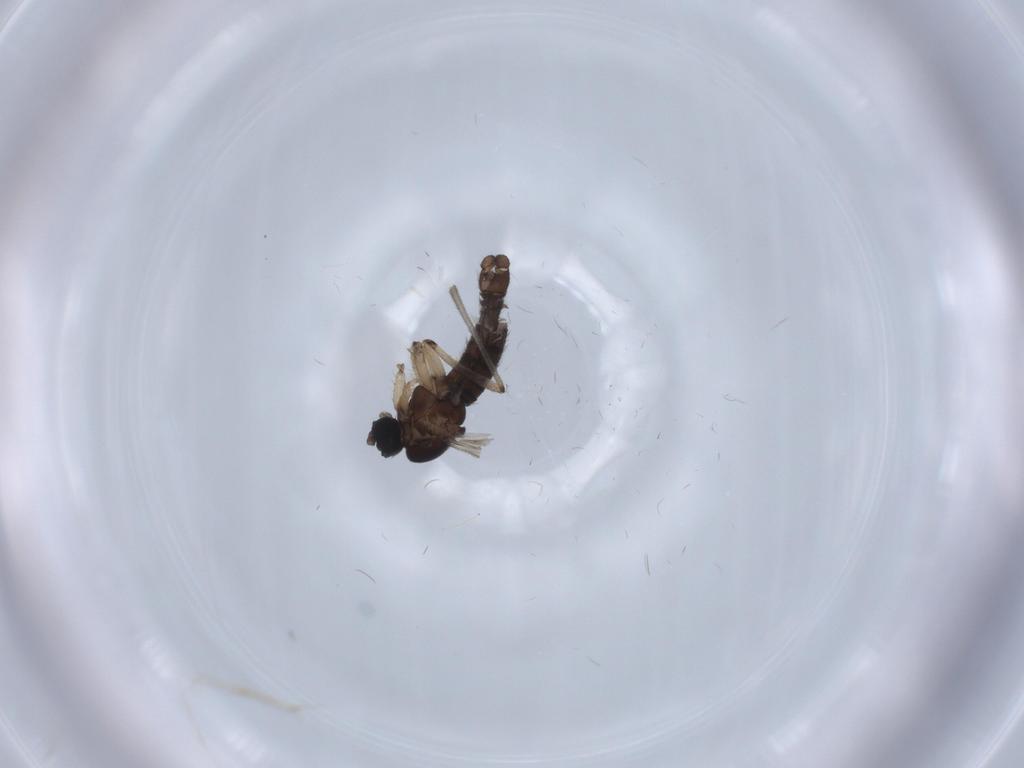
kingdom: Animalia
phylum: Arthropoda
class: Insecta
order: Diptera
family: Sciaridae
